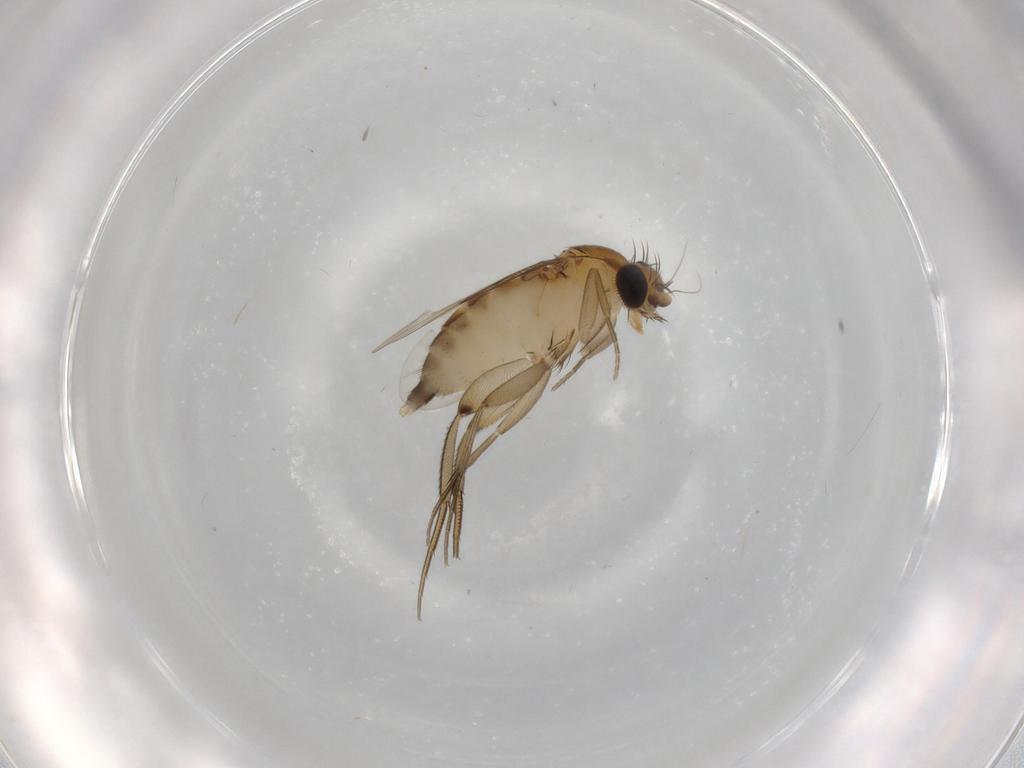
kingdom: Animalia
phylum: Arthropoda
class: Insecta
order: Diptera
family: Phoridae
